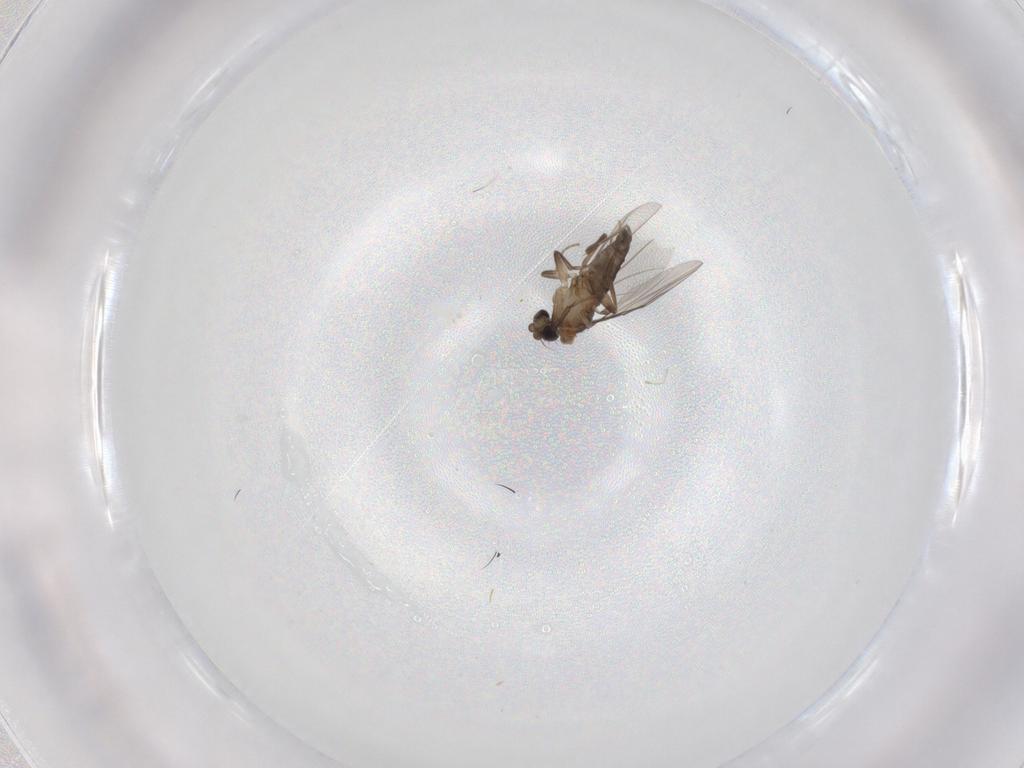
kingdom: Animalia
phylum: Arthropoda
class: Insecta
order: Diptera
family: Phoridae
